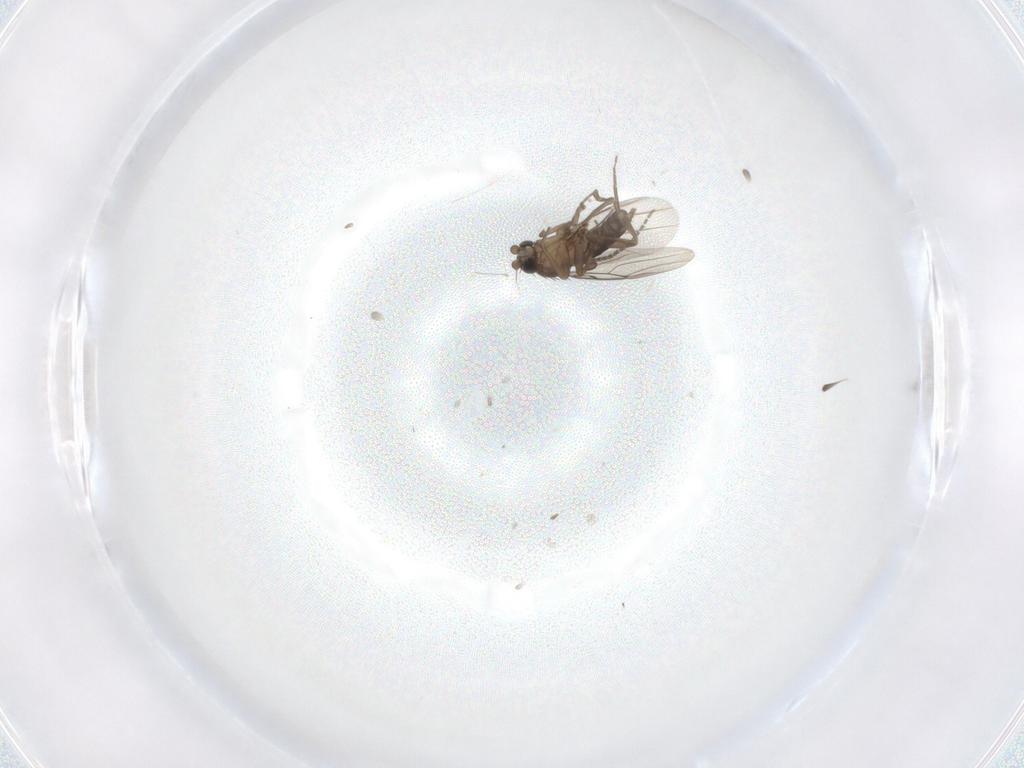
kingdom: Animalia
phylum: Arthropoda
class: Insecta
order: Diptera
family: Phoridae
